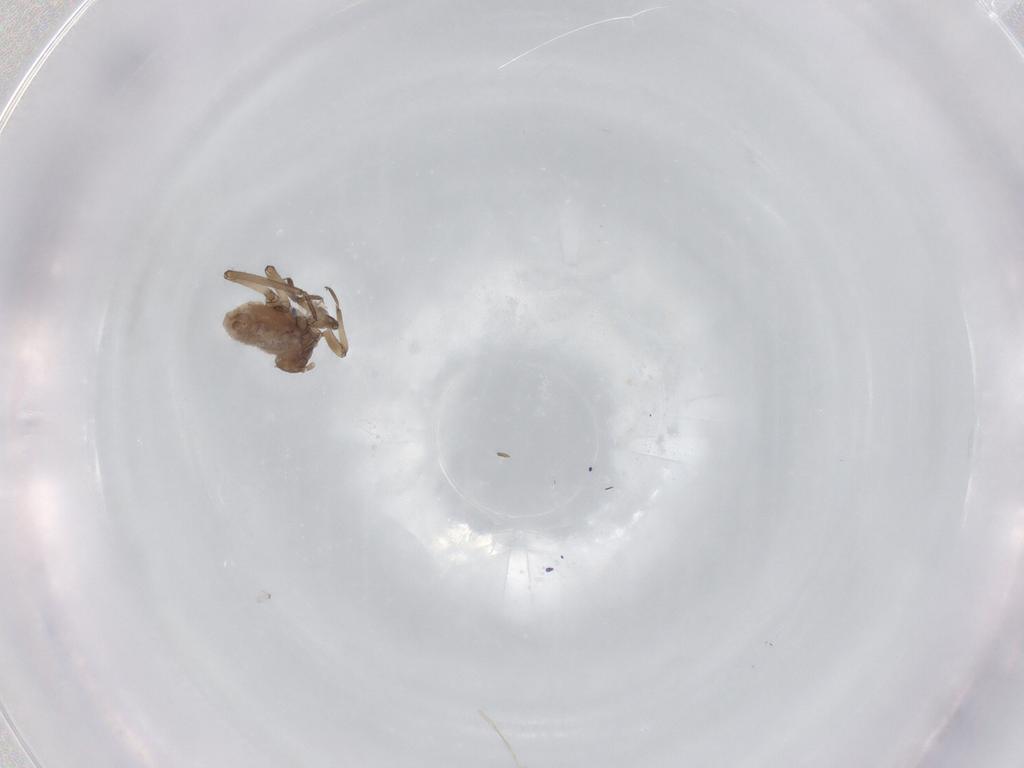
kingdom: Animalia
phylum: Arthropoda
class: Insecta
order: Hemiptera
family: Aphididae
